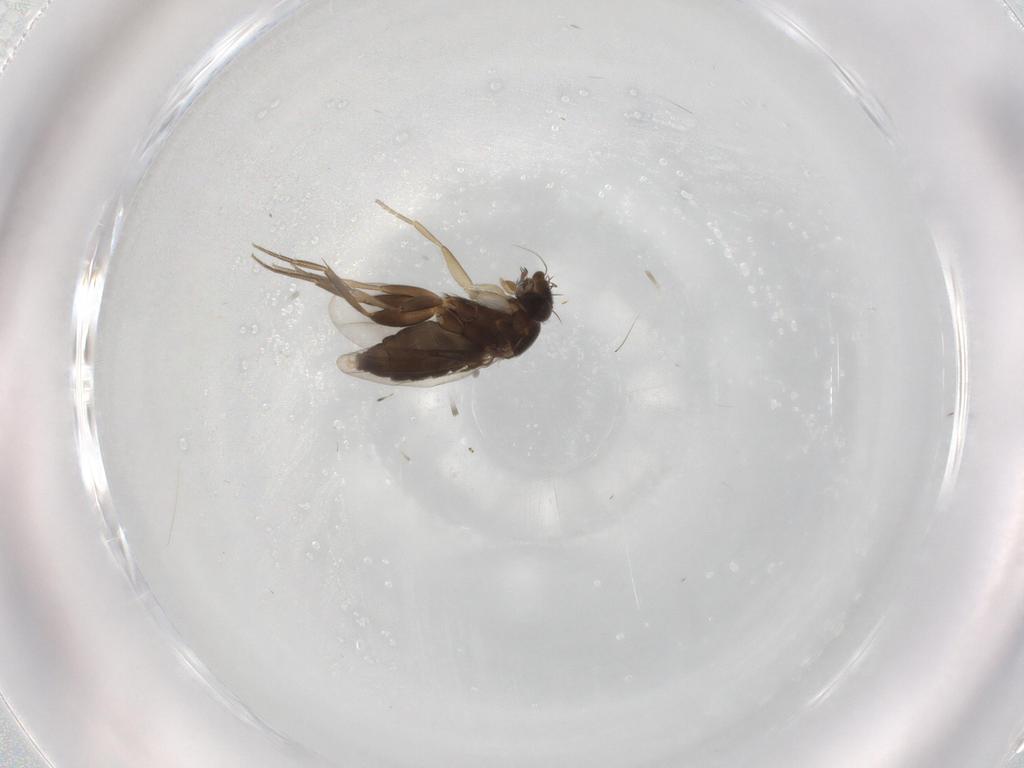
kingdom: Animalia
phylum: Arthropoda
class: Insecta
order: Diptera
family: Phoridae
